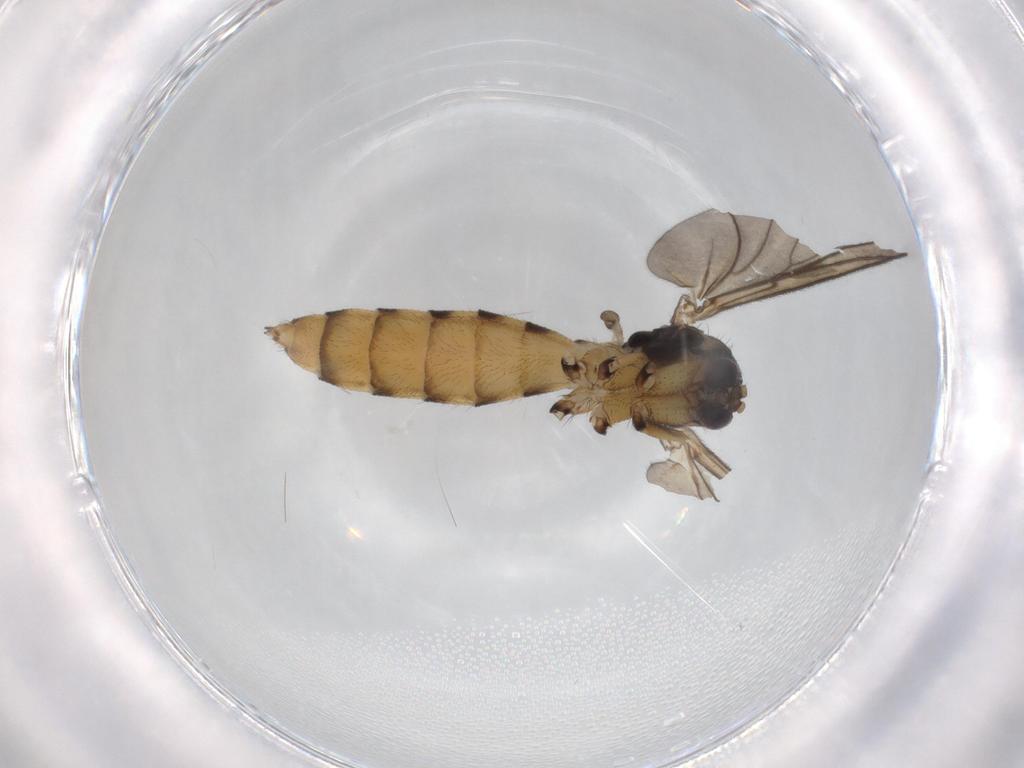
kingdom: Animalia
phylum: Arthropoda
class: Insecta
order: Diptera
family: Mycetophilidae
